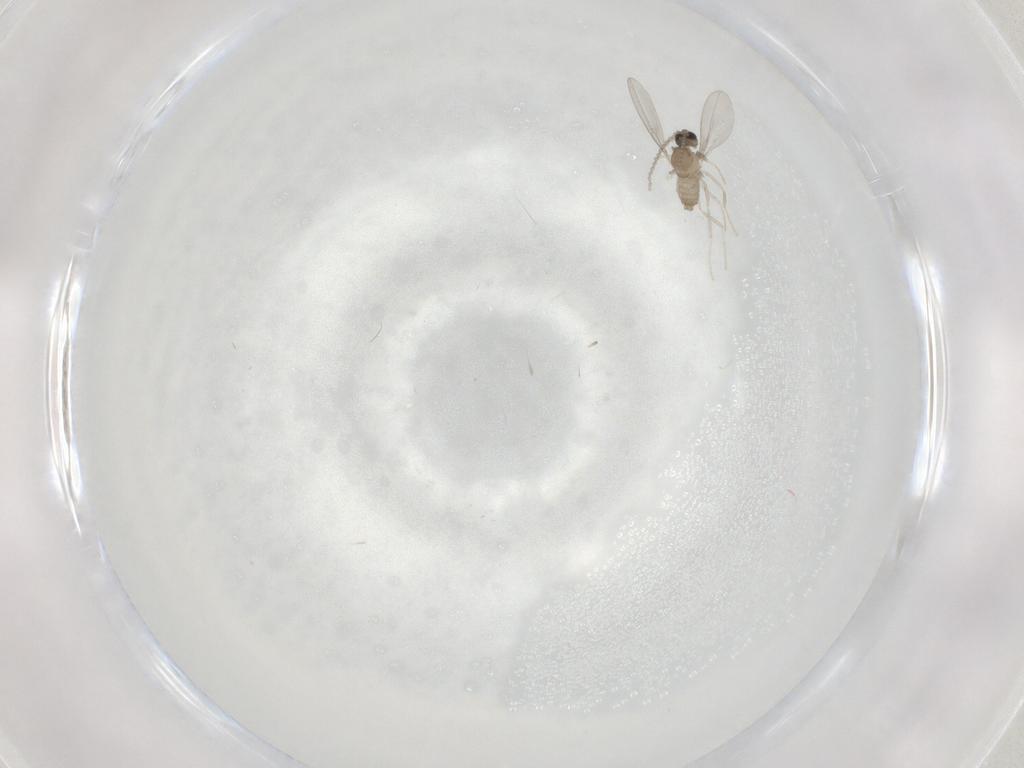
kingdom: Animalia
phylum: Arthropoda
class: Insecta
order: Diptera
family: Cecidomyiidae
